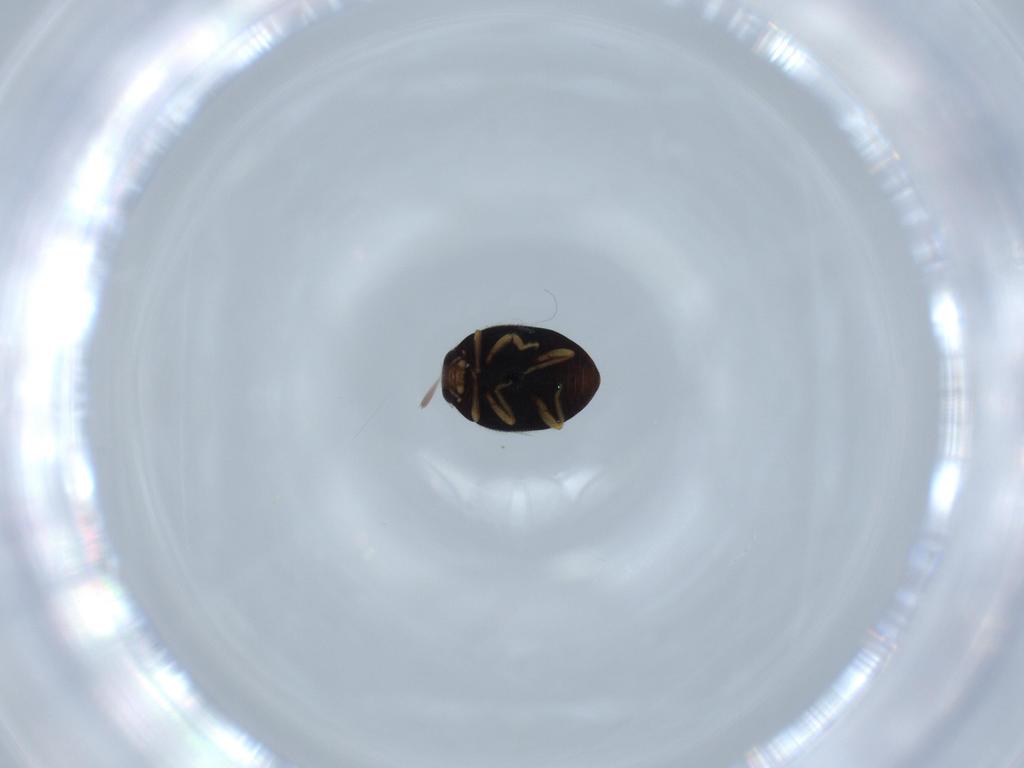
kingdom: Animalia
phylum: Arthropoda
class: Insecta
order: Coleoptera
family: Coccinellidae
